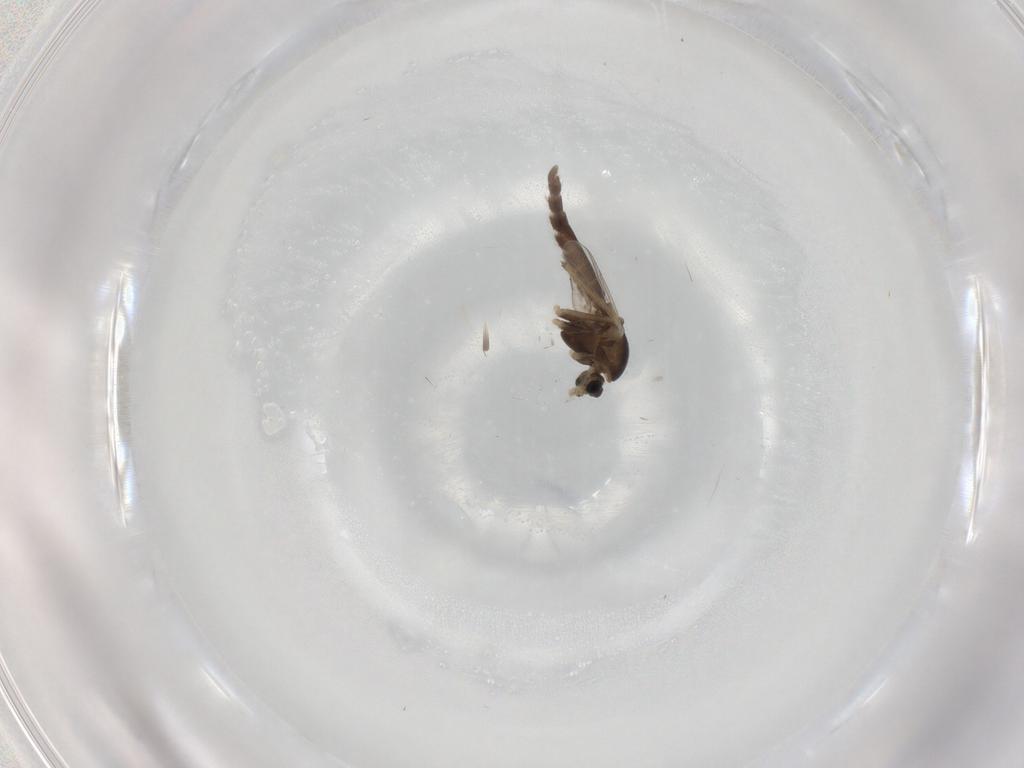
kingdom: Animalia
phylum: Arthropoda
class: Insecta
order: Diptera
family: Chironomidae
